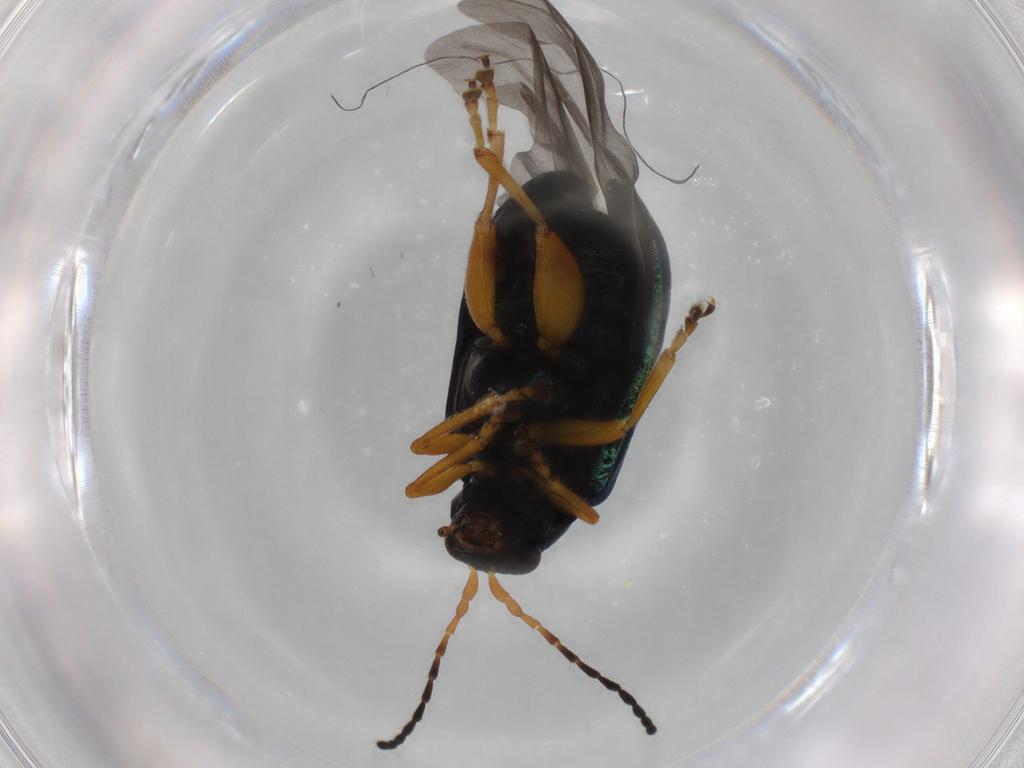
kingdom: Animalia
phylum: Arthropoda
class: Insecta
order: Coleoptera
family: Chrysomelidae
